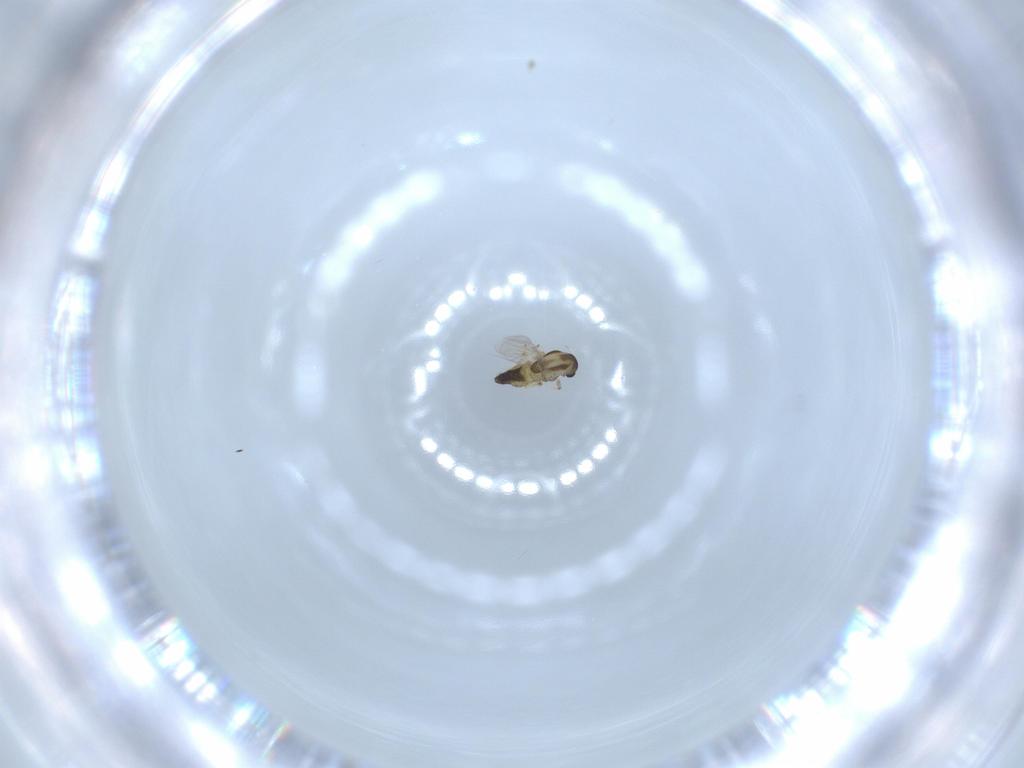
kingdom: Animalia
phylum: Arthropoda
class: Insecta
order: Diptera
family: Chironomidae
